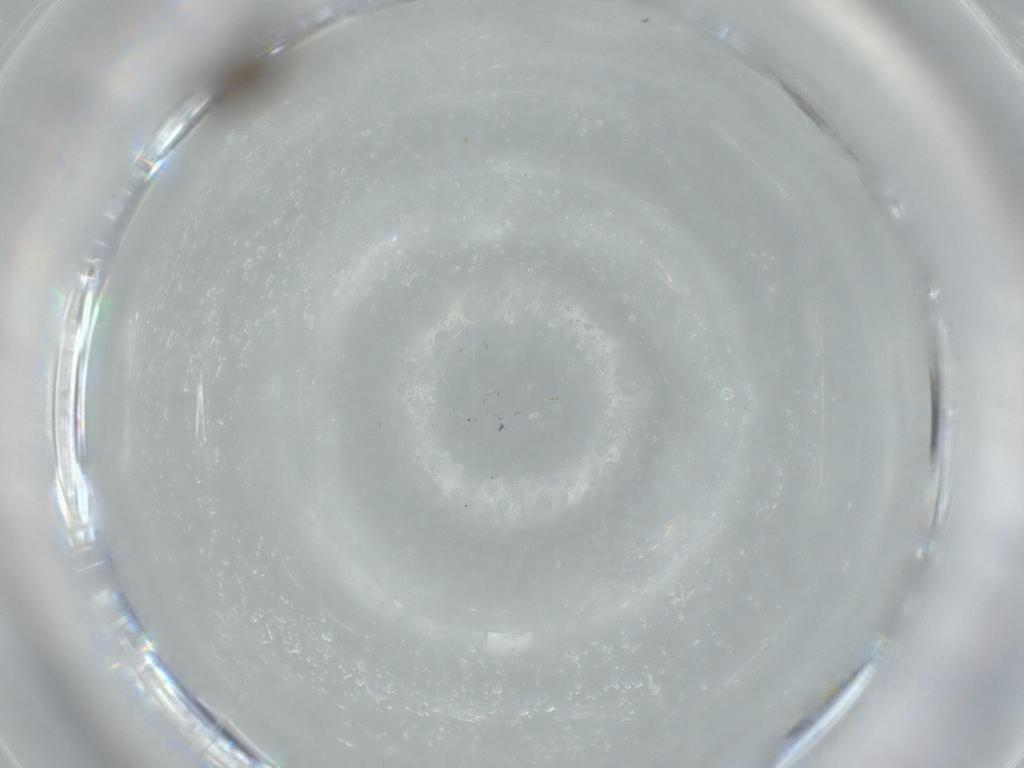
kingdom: Animalia
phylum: Arthropoda
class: Insecta
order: Diptera
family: Ceratopogonidae
